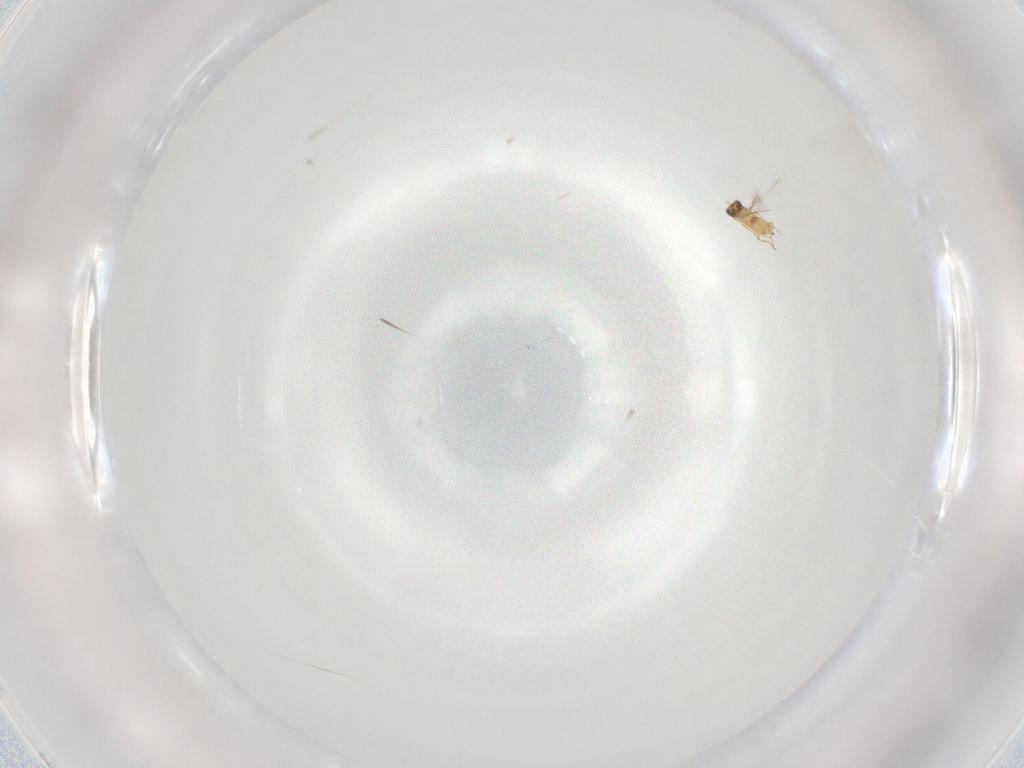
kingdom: Animalia
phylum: Arthropoda
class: Insecta
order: Hymenoptera
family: Mymaridae
